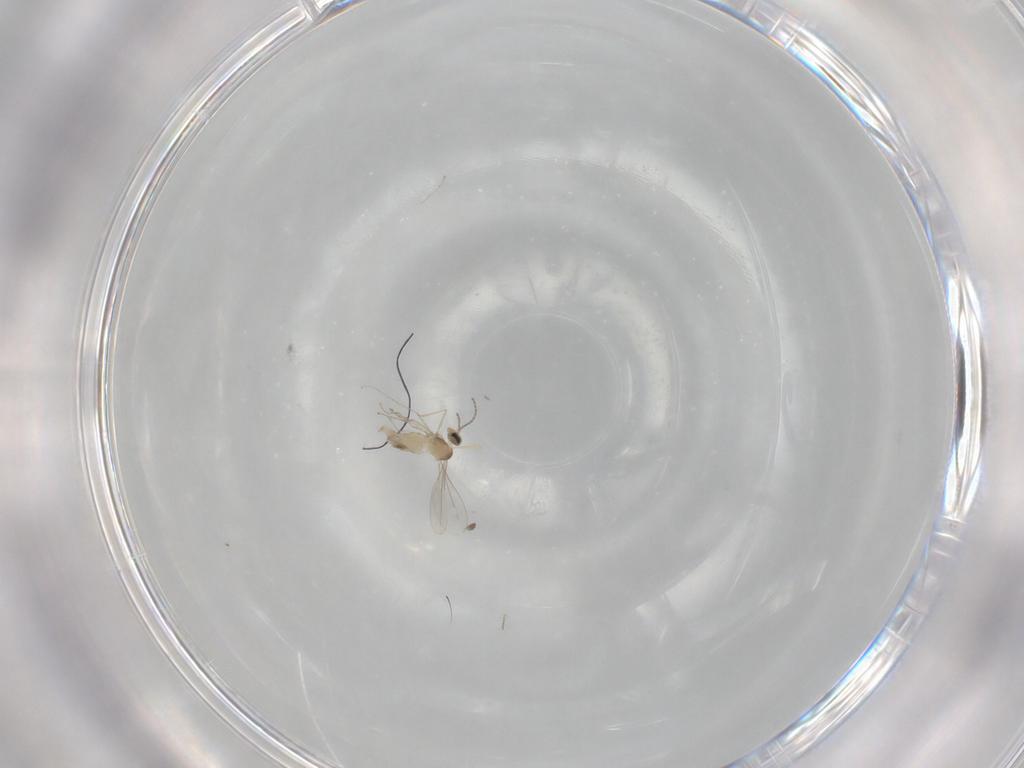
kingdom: Animalia
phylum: Arthropoda
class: Insecta
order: Diptera
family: Cecidomyiidae
